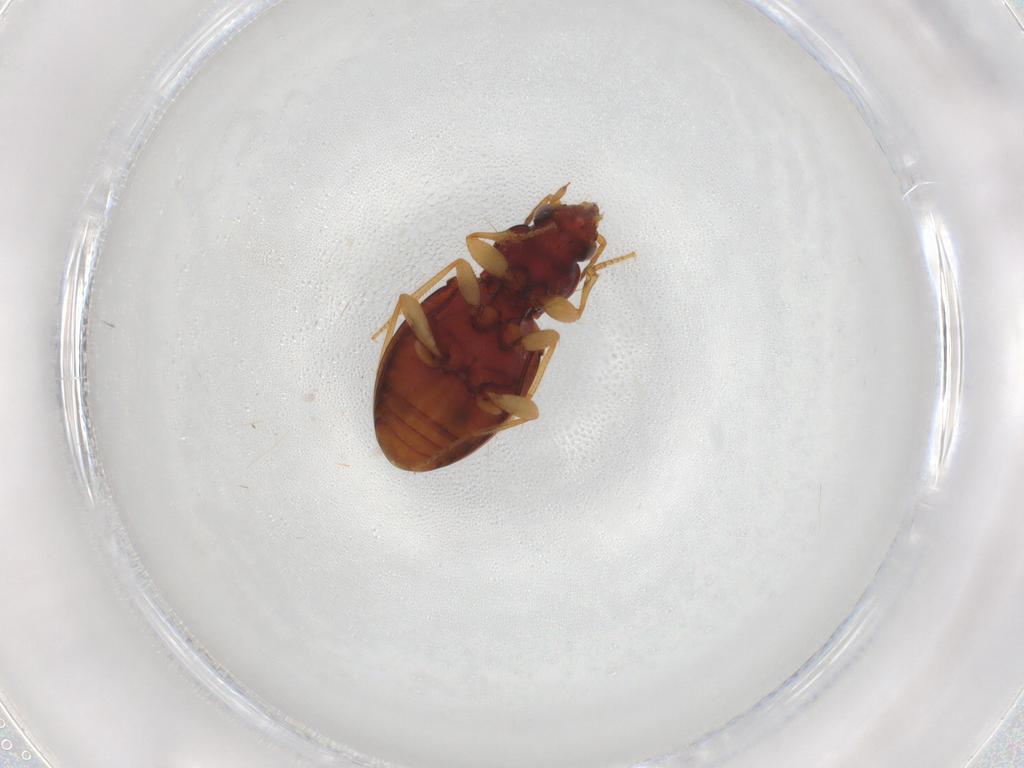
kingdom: Animalia
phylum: Arthropoda
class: Insecta
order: Coleoptera
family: Carabidae
